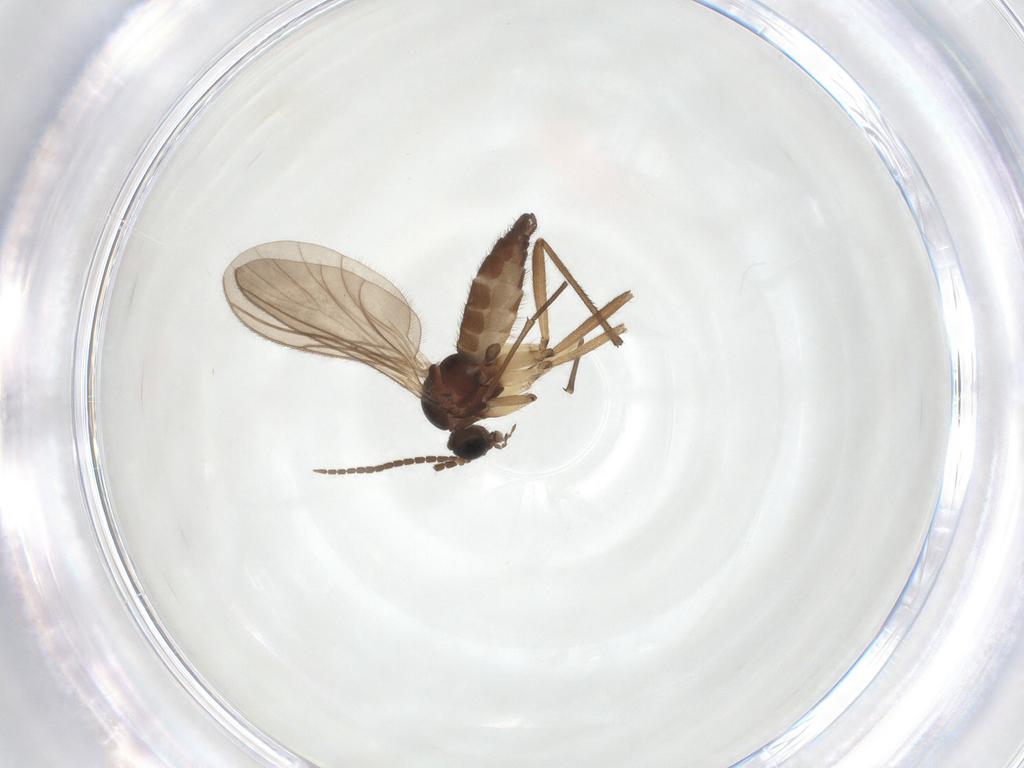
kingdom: Animalia
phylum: Arthropoda
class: Insecta
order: Diptera
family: Sciaridae
